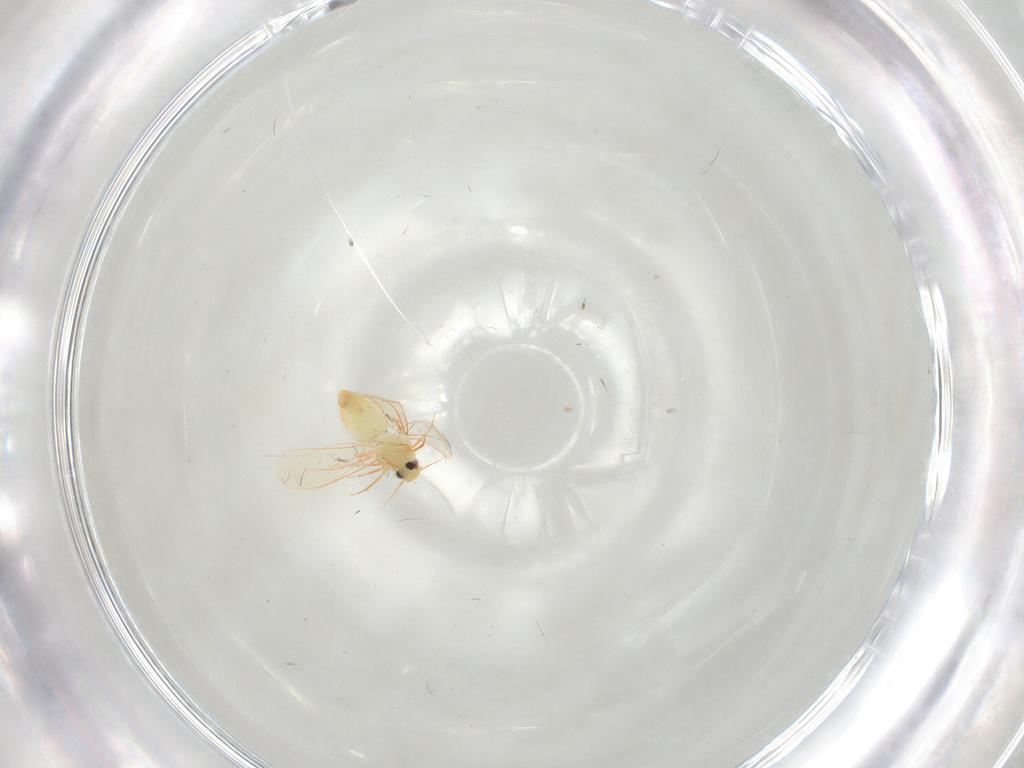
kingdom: Animalia
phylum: Arthropoda
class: Insecta
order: Hemiptera
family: Aleyrodidae
